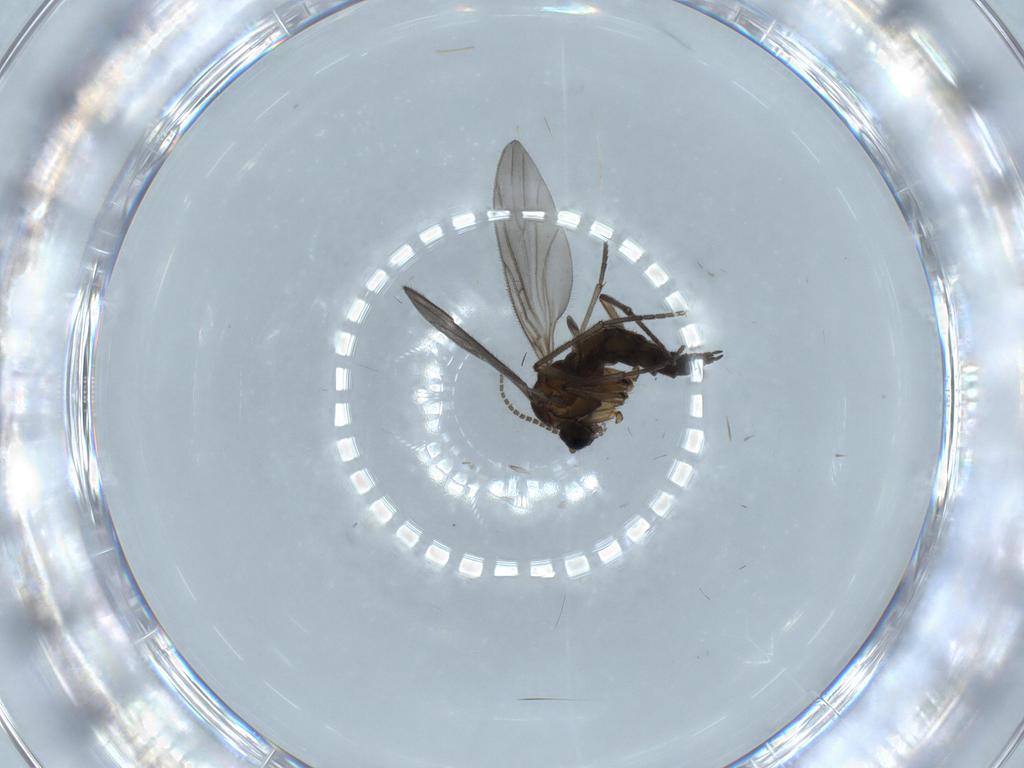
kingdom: Animalia
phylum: Arthropoda
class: Insecta
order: Diptera
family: Sciaridae
